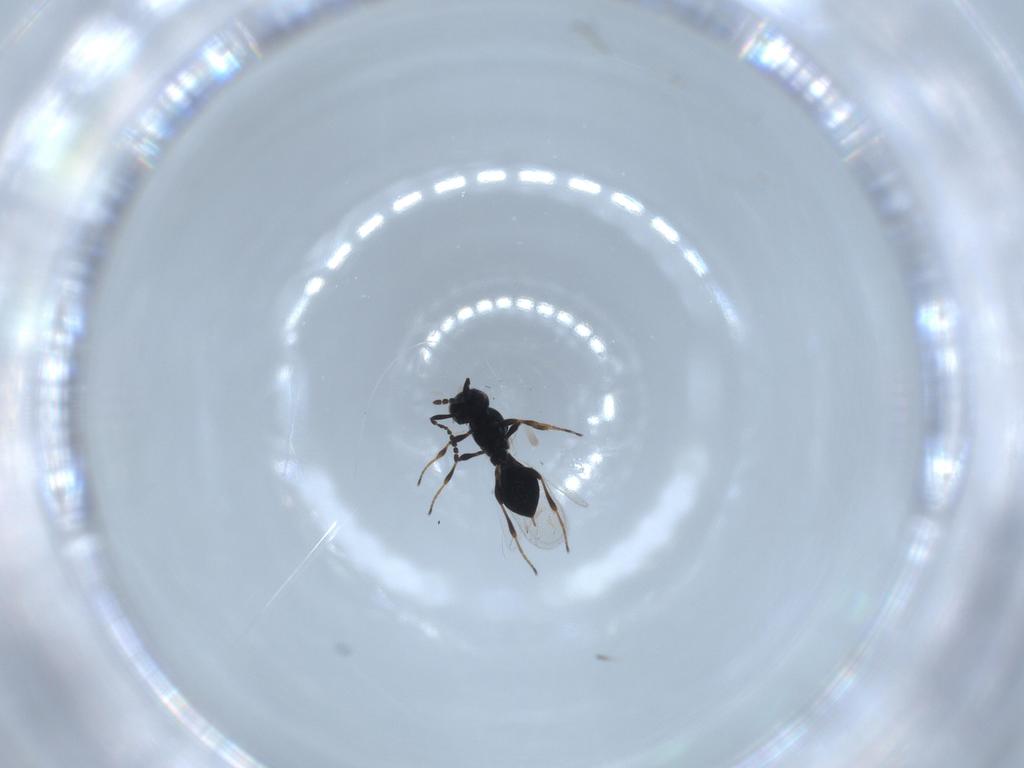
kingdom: Animalia
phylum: Arthropoda
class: Insecta
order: Hymenoptera
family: Platygastridae
